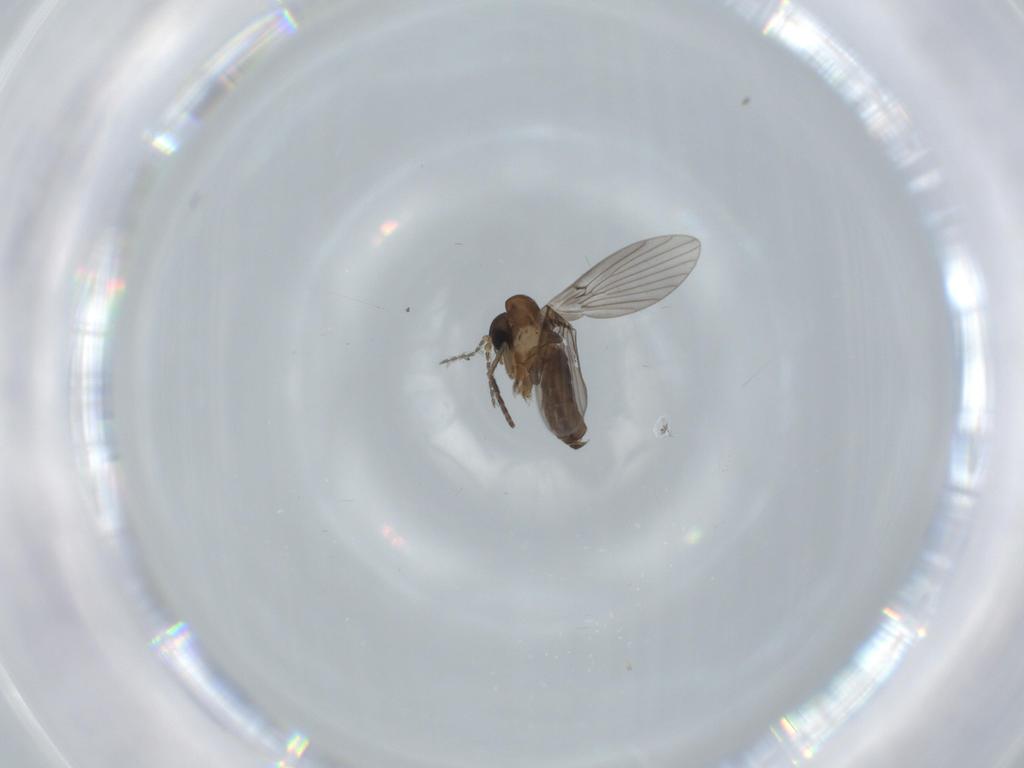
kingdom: Animalia
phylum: Arthropoda
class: Insecta
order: Diptera
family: Psychodidae
